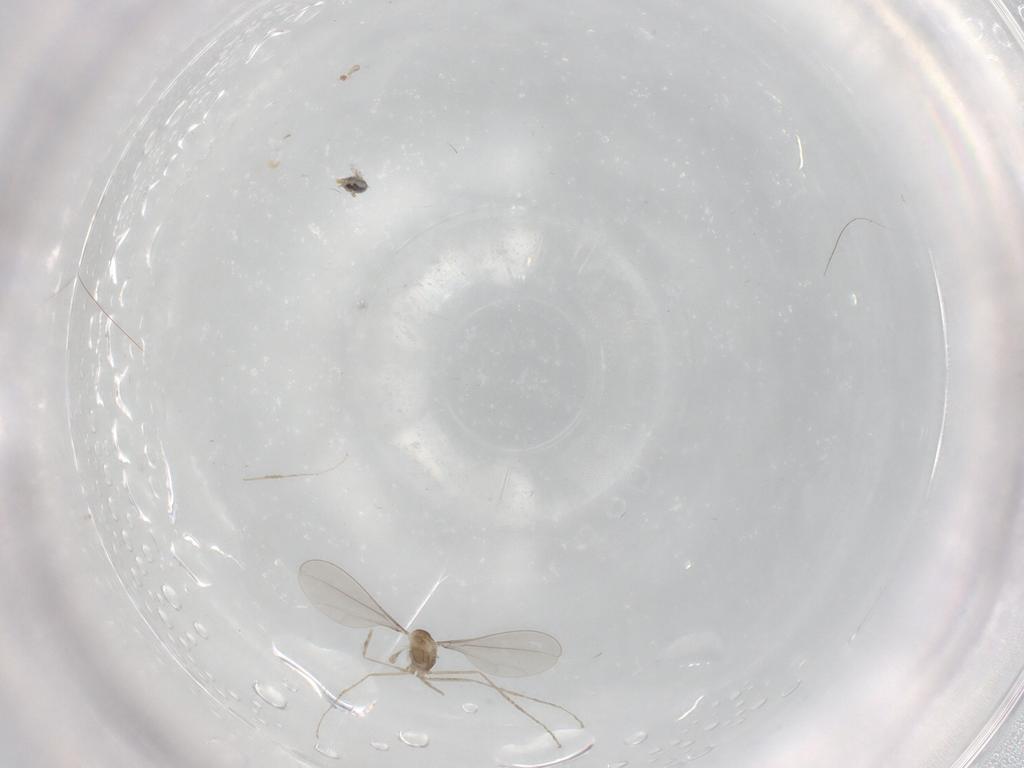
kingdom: Animalia
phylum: Arthropoda
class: Insecta
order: Diptera
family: Ceratopogonidae
